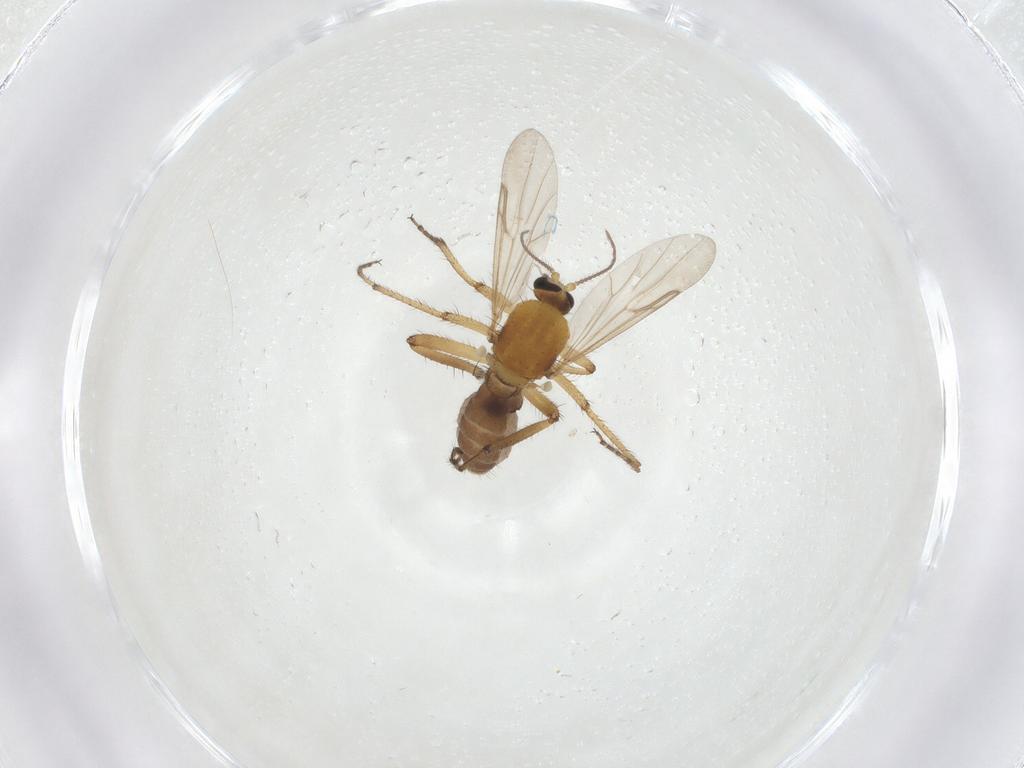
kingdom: Animalia
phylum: Arthropoda
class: Insecta
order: Diptera
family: Ceratopogonidae
